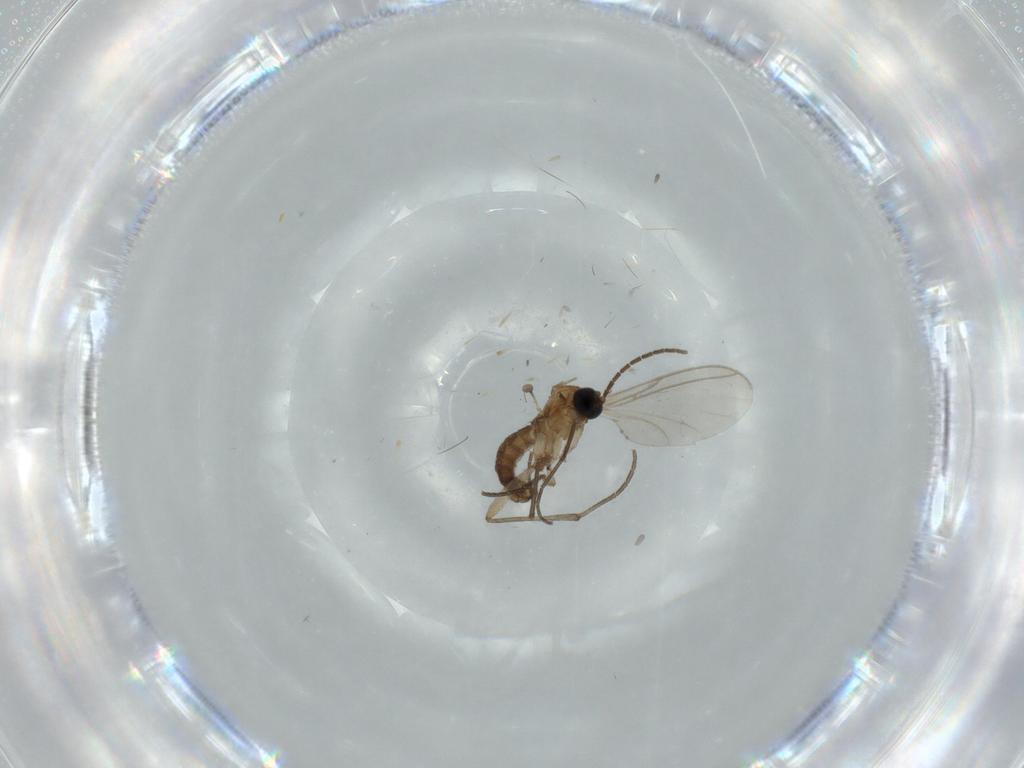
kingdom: Animalia
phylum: Arthropoda
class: Insecta
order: Diptera
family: Sciaridae
